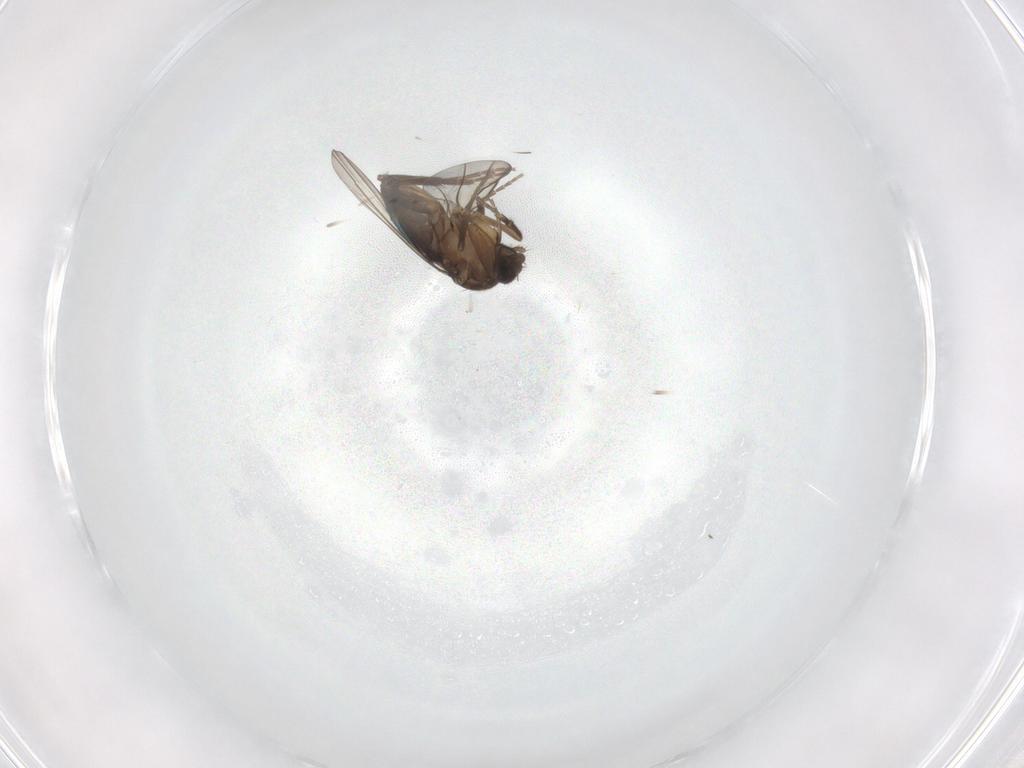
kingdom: Animalia
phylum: Arthropoda
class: Insecta
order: Diptera
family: Phoridae
